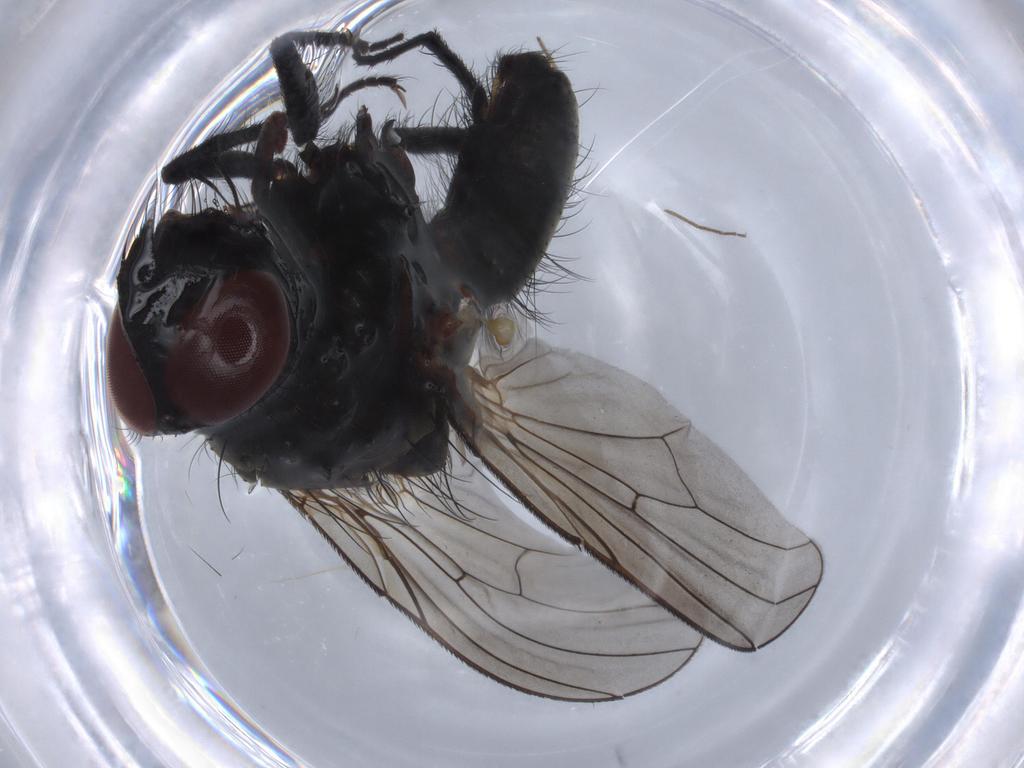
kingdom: Animalia
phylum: Arthropoda
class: Insecta
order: Diptera
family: Cecidomyiidae
